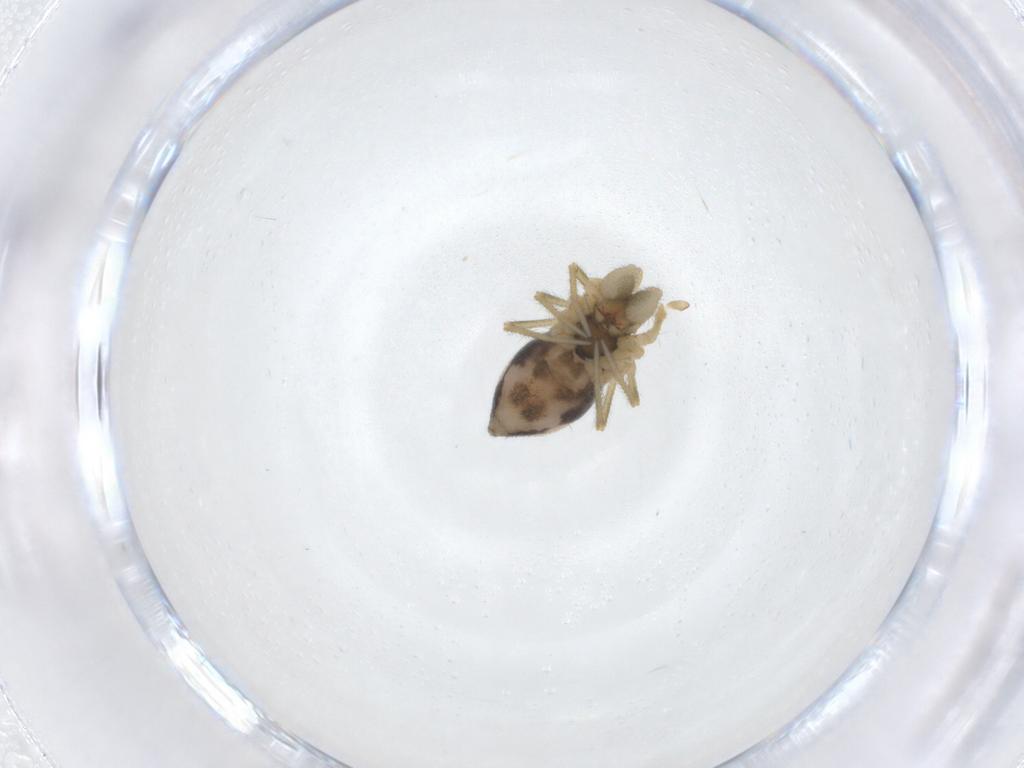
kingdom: Animalia
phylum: Arthropoda
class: Arachnida
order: Araneae
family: Linyphiidae
